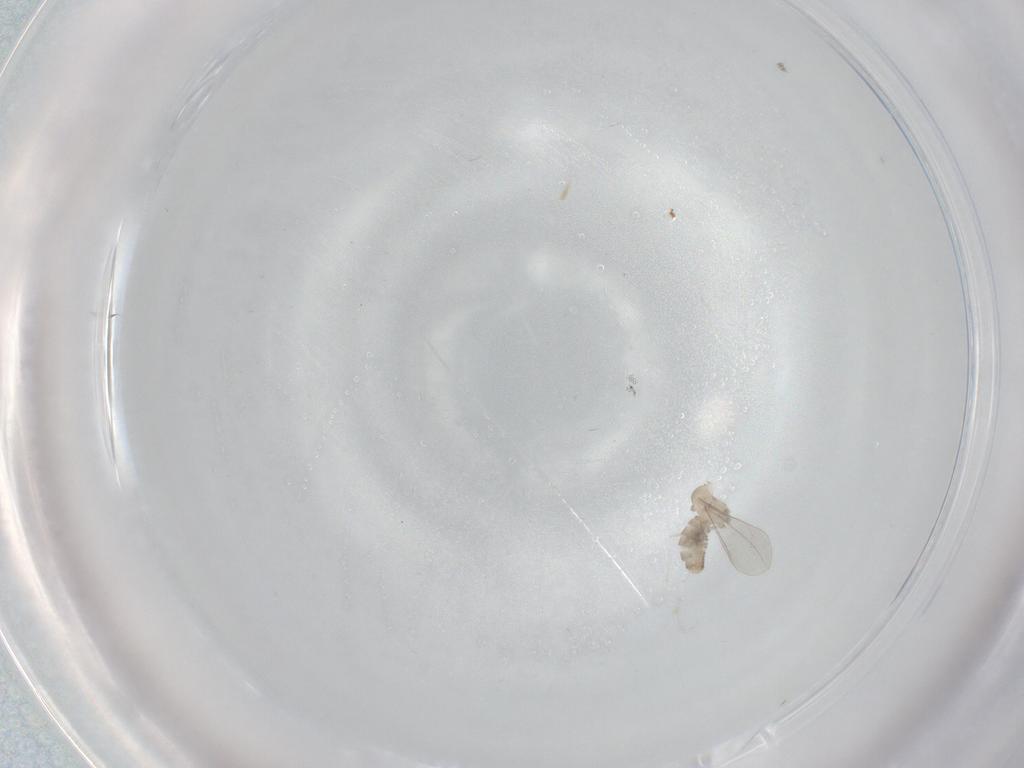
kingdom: Animalia
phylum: Arthropoda
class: Insecta
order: Diptera
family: Cecidomyiidae
